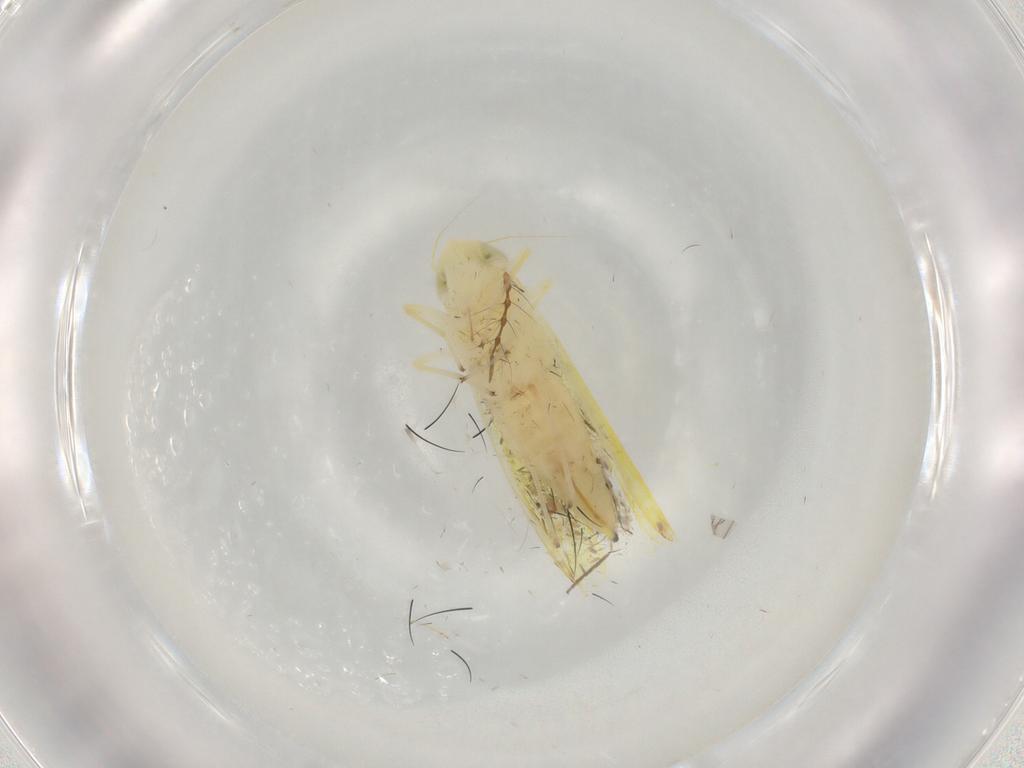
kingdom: Animalia
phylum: Arthropoda
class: Insecta
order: Hemiptera
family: Cicadellidae
